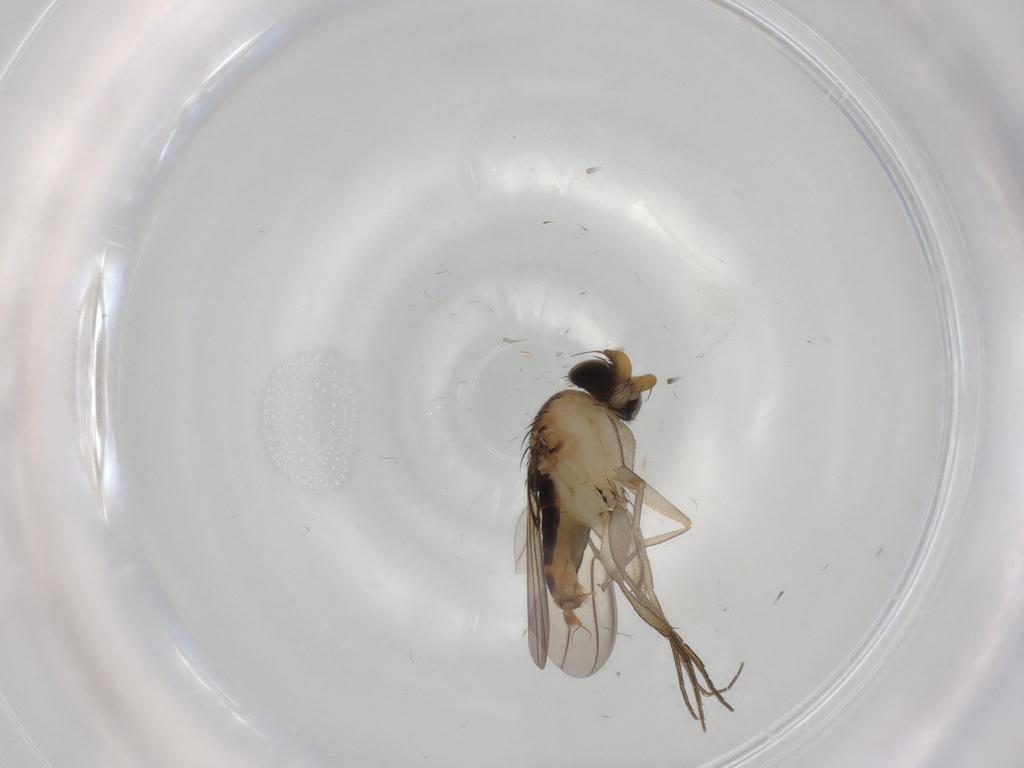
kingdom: Animalia
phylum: Arthropoda
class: Insecta
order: Diptera
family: Phoridae
